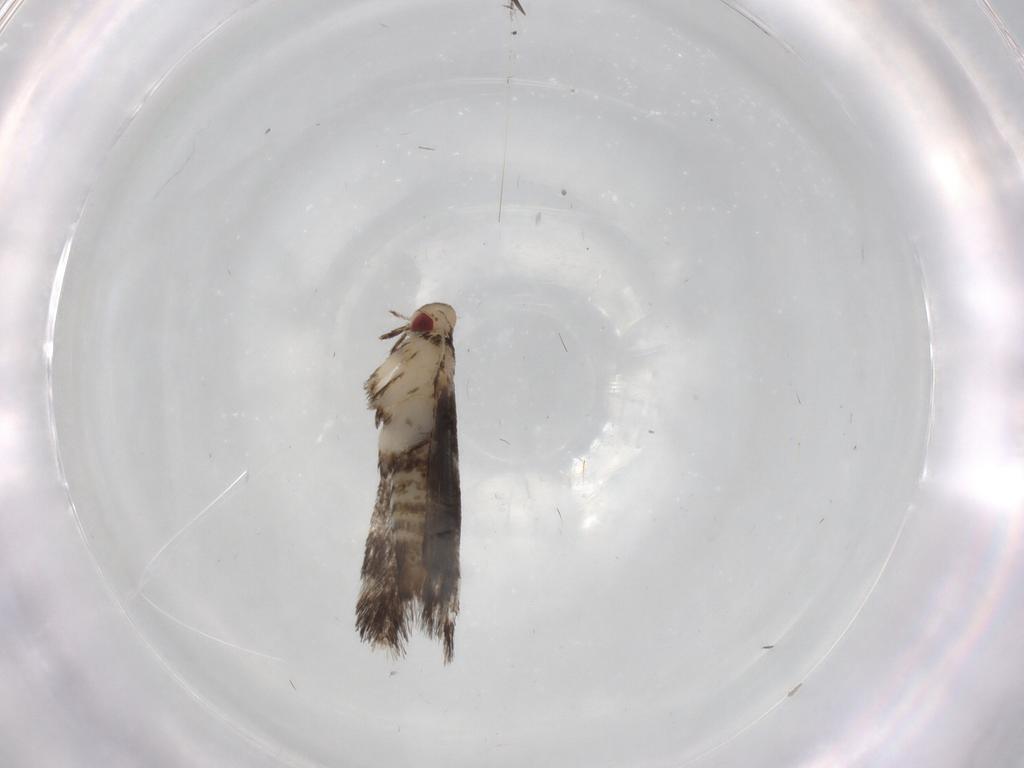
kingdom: Animalia
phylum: Arthropoda
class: Insecta
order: Lepidoptera
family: Gracillariidae
